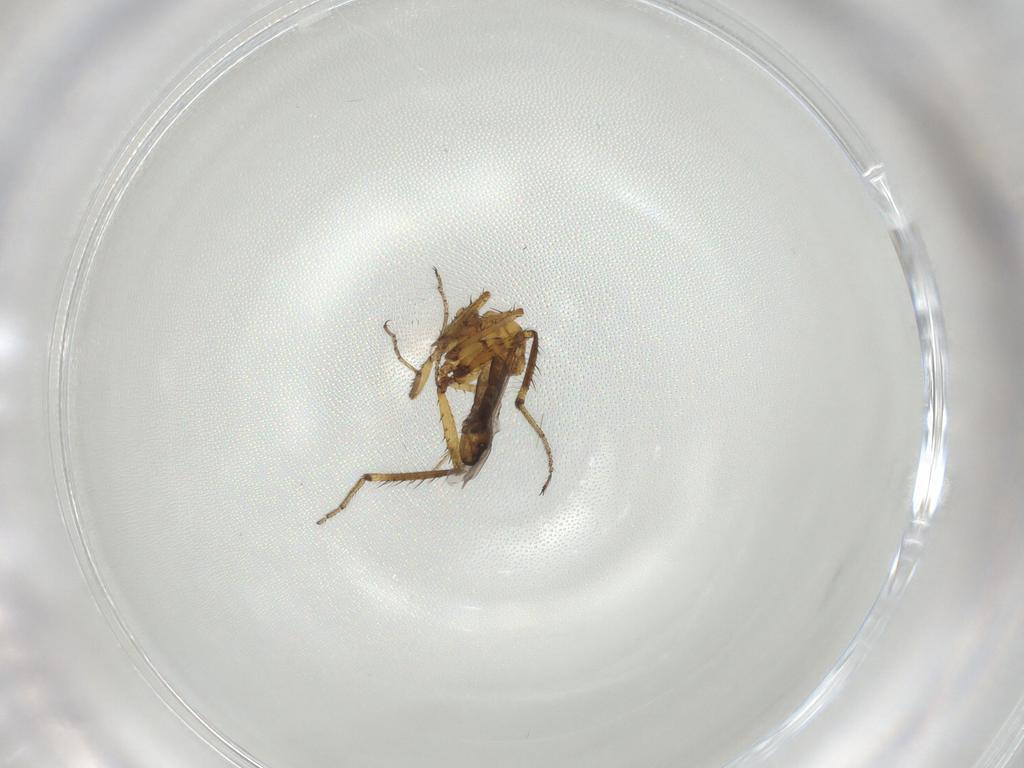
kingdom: Animalia
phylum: Arthropoda
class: Insecta
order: Diptera
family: Ceratopogonidae
